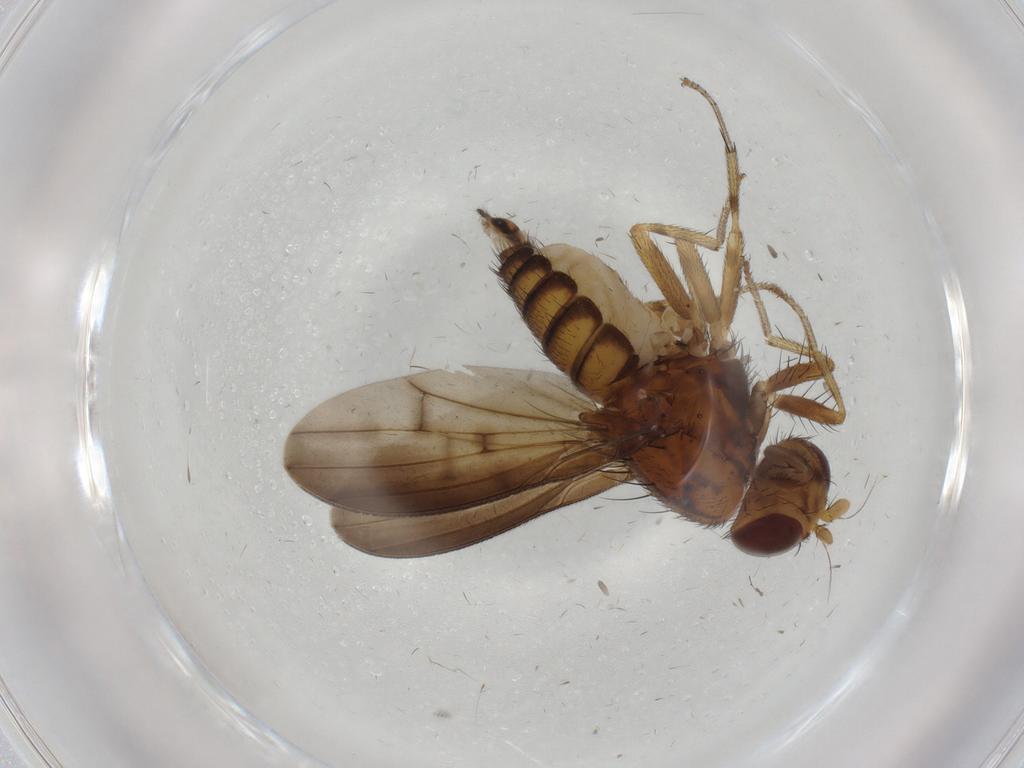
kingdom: Animalia
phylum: Arthropoda
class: Insecta
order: Diptera
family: Lauxaniidae
